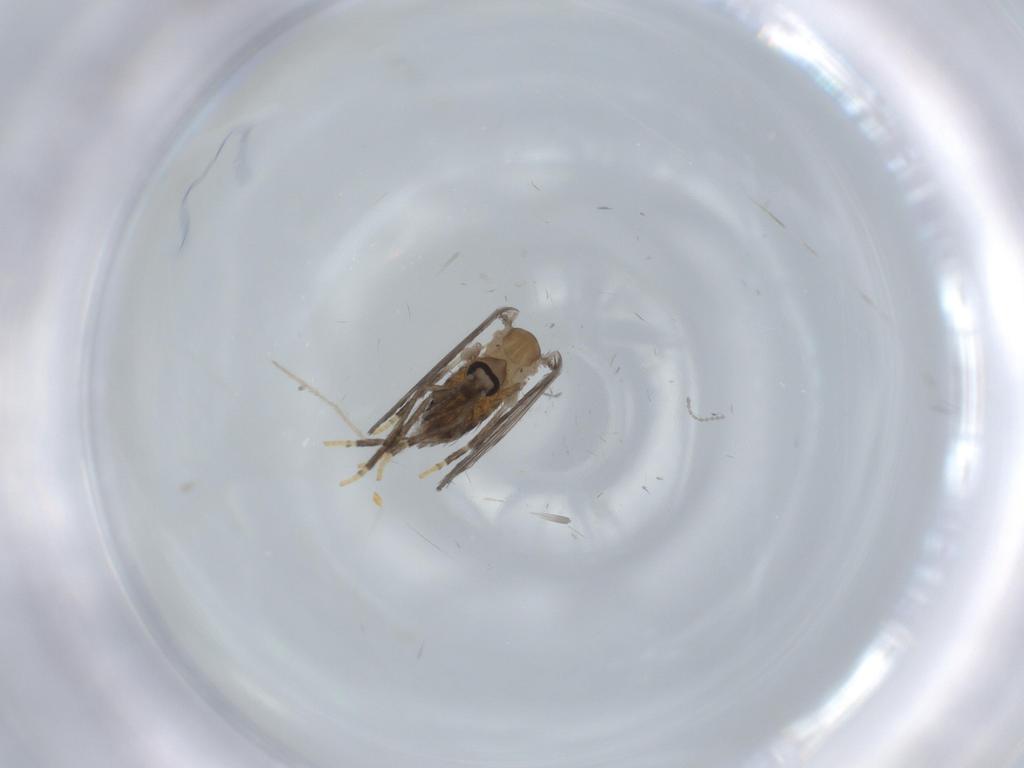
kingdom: Animalia
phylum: Arthropoda
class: Insecta
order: Diptera
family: Psychodidae
